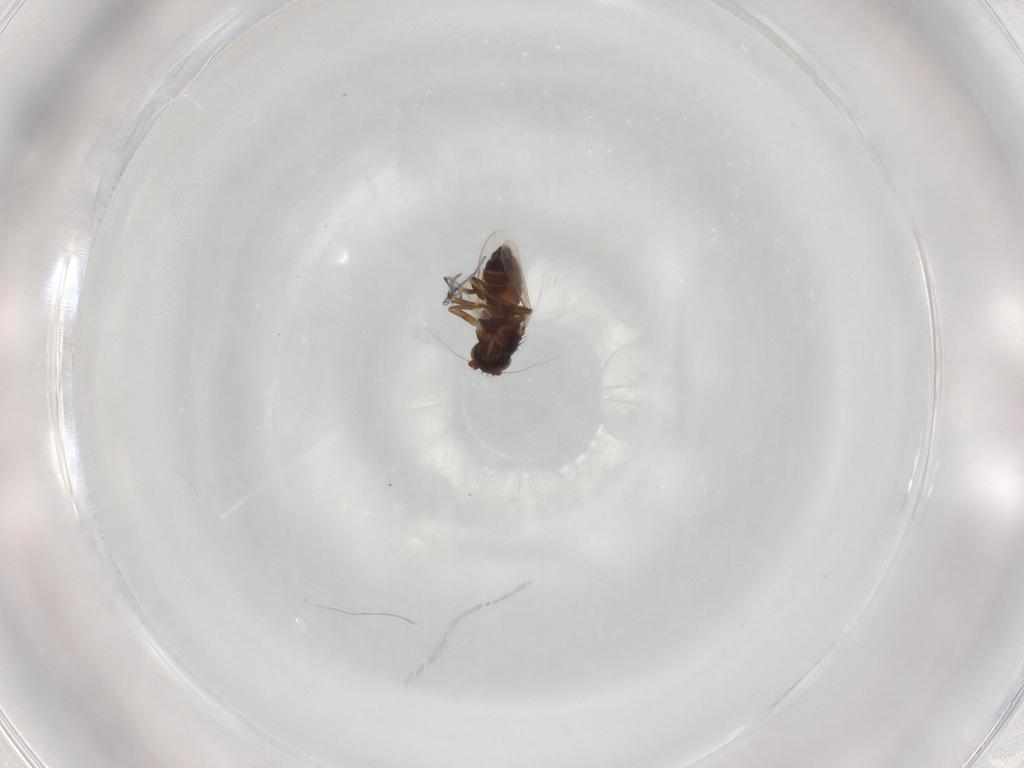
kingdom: Animalia
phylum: Arthropoda
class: Insecta
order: Diptera
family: Sphaeroceridae
